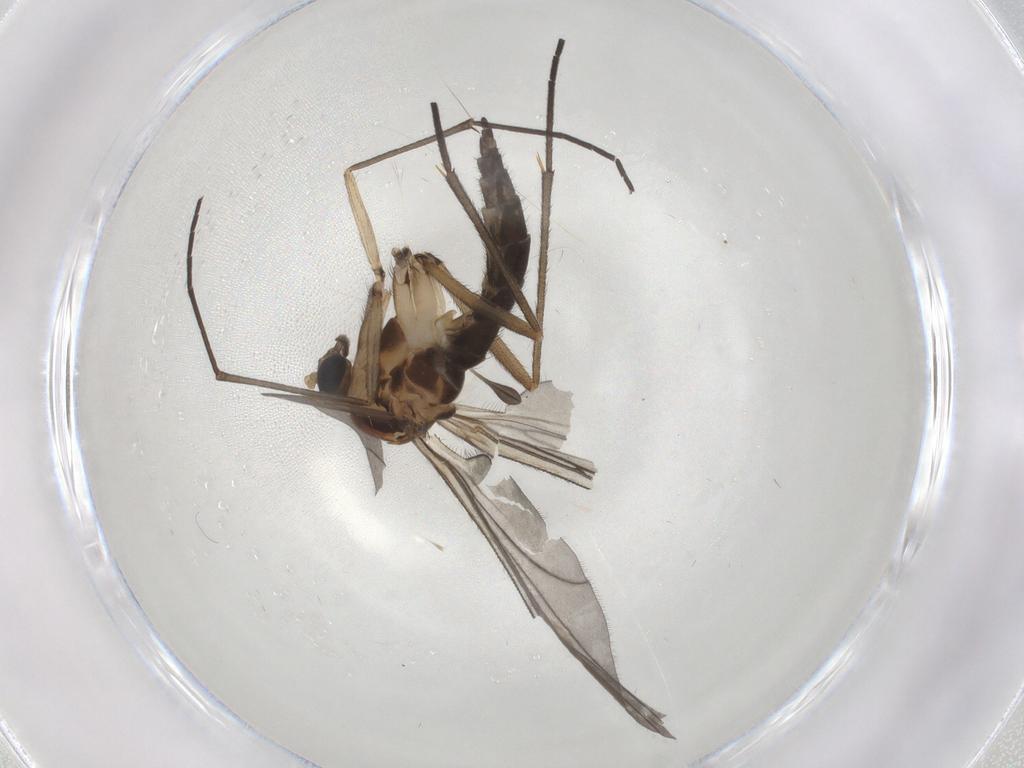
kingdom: Animalia
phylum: Arthropoda
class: Insecta
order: Diptera
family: Sciaridae
